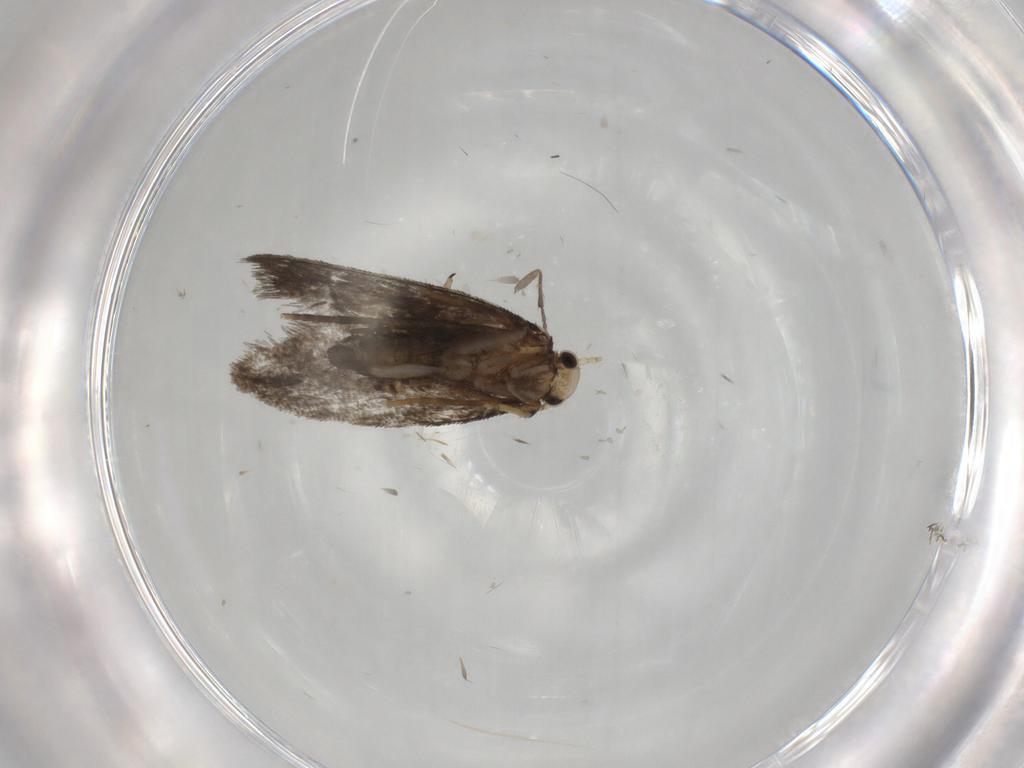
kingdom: Animalia
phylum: Arthropoda
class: Insecta
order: Lepidoptera
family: Psychidae
